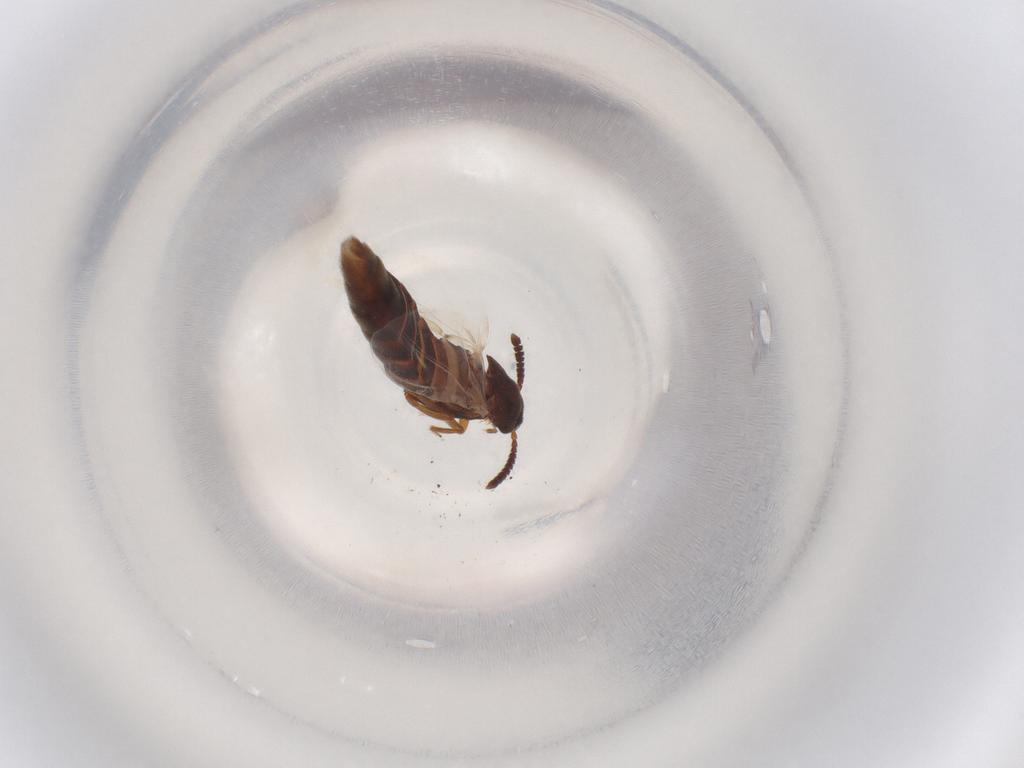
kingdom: Animalia
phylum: Arthropoda
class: Insecta
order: Coleoptera
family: Staphylinidae
